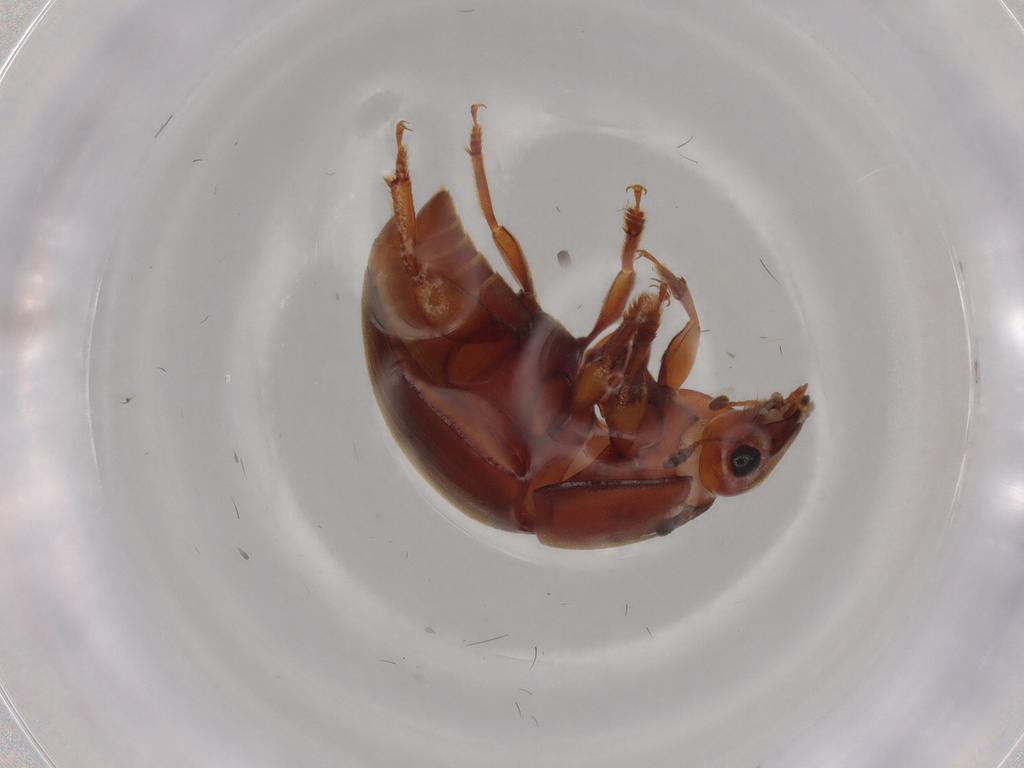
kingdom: Animalia
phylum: Arthropoda
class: Insecta
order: Coleoptera
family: Nitidulidae
